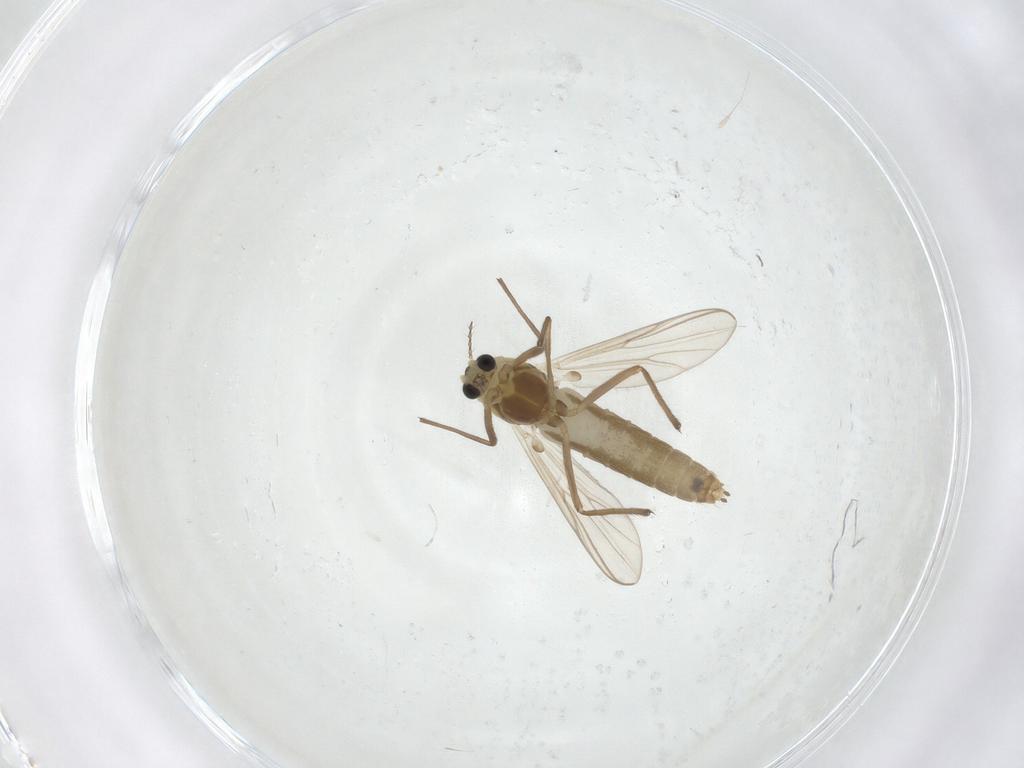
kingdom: Animalia
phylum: Arthropoda
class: Insecta
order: Diptera
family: Chironomidae
